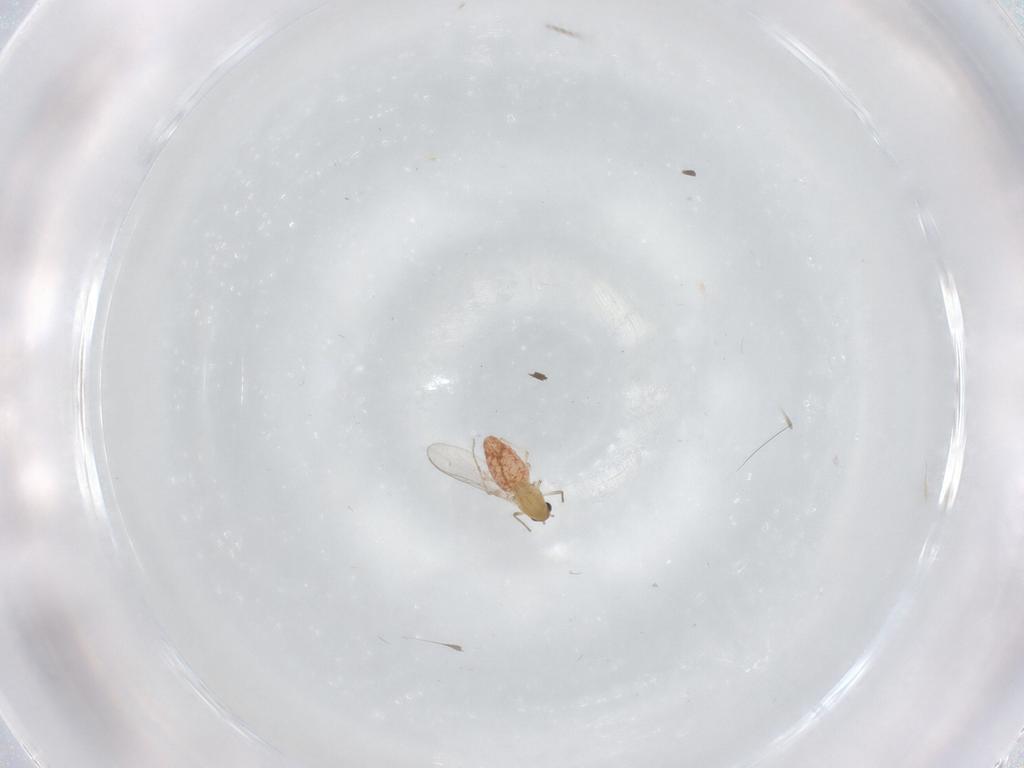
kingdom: Animalia
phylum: Arthropoda
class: Insecta
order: Diptera
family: Chironomidae
